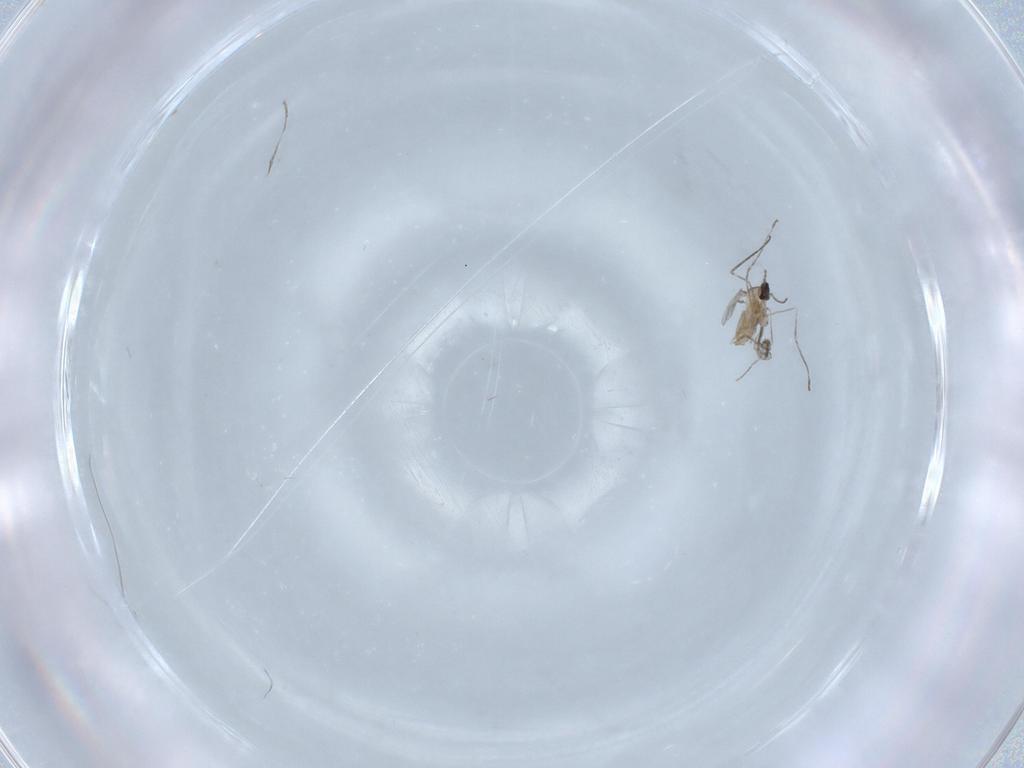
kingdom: Animalia
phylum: Arthropoda
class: Insecta
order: Diptera
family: Cecidomyiidae
